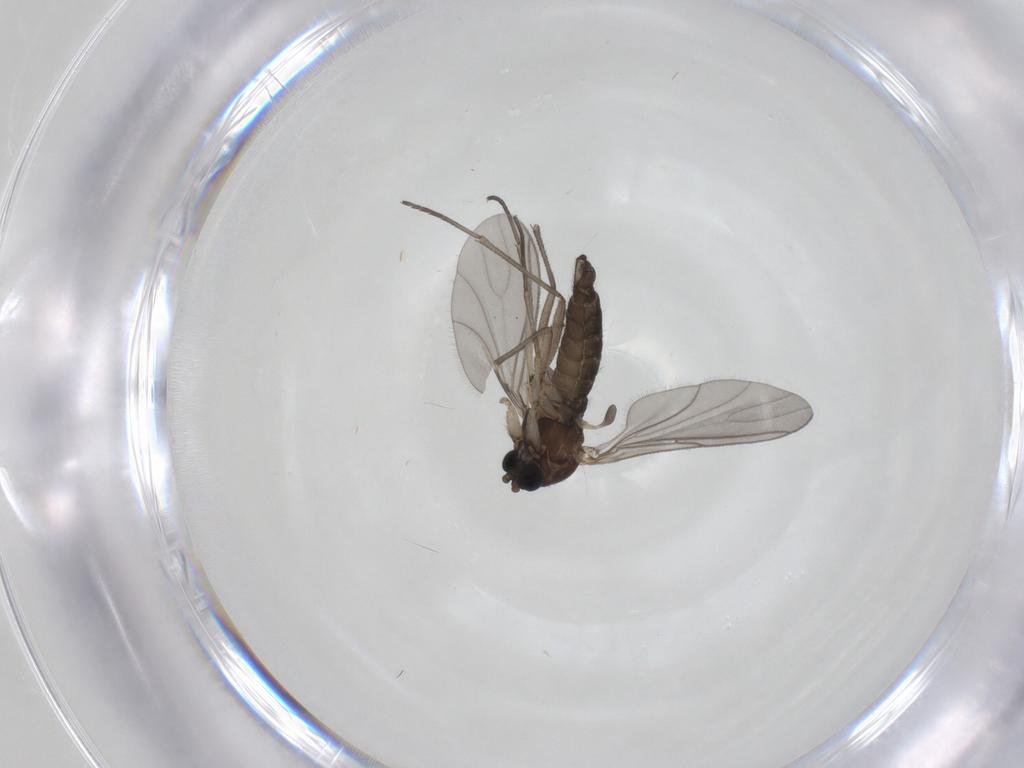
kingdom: Animalia
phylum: Arthropoda
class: Insecta
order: Diptera
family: Sciaridae
